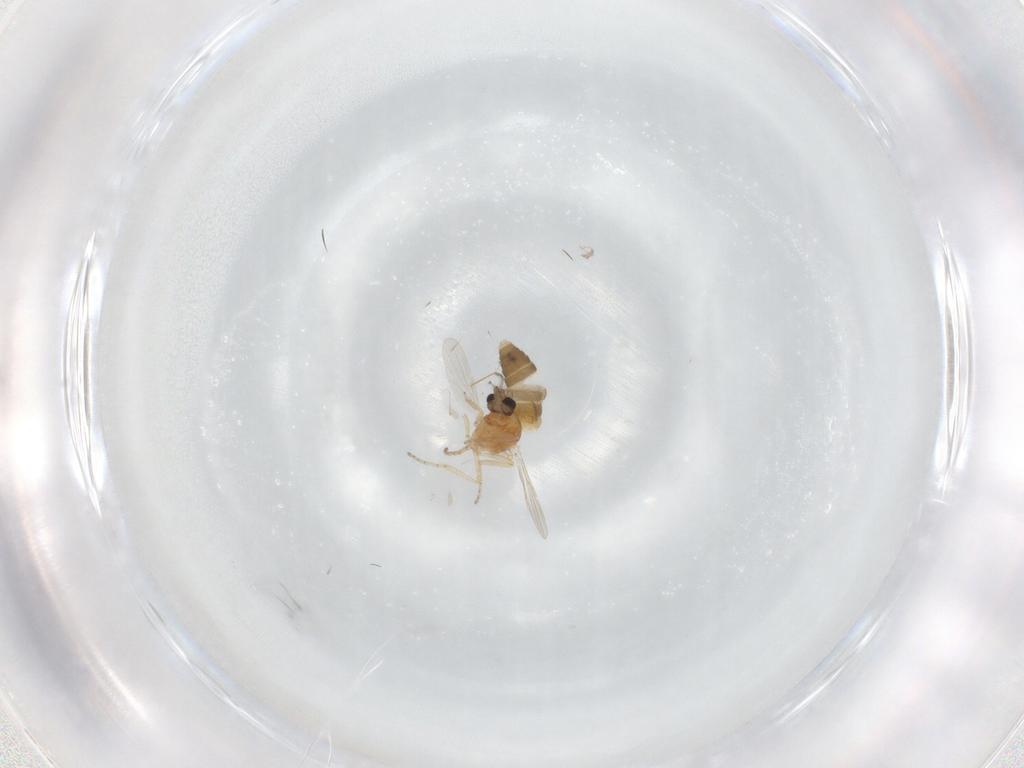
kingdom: Animalia
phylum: Arthropoda
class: Insecta
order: Diptera
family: Ceratopogonidae
